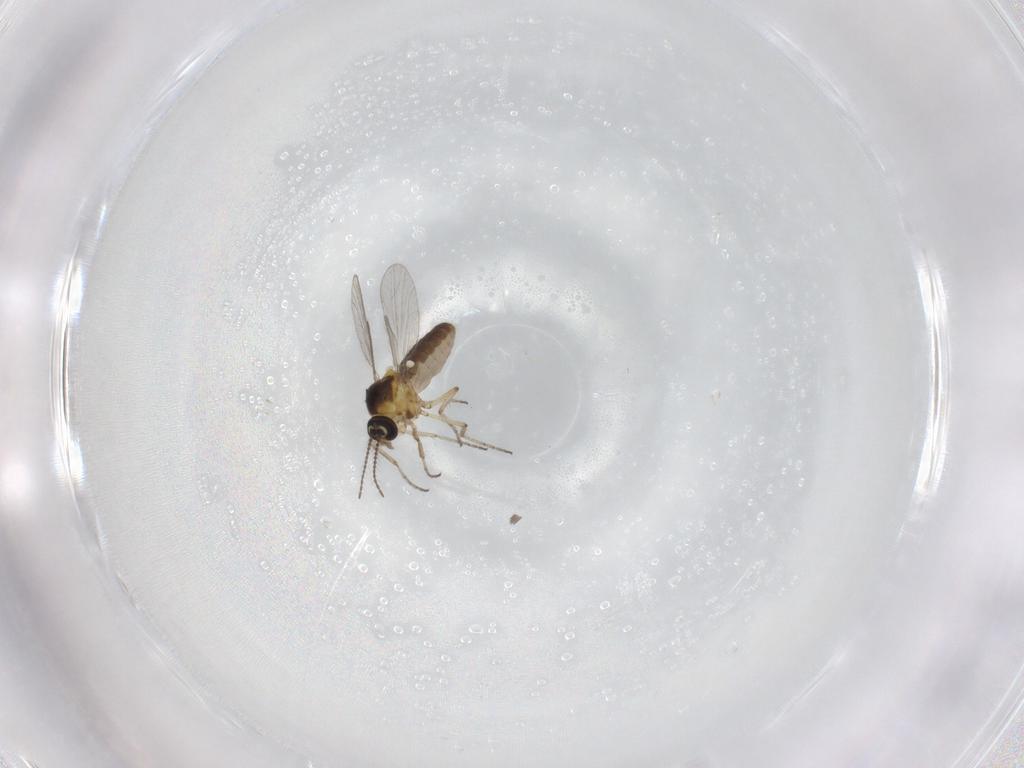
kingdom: Animalia
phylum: Arthropoda
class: Insecta
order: Diptera
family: Ceratopogonidae
